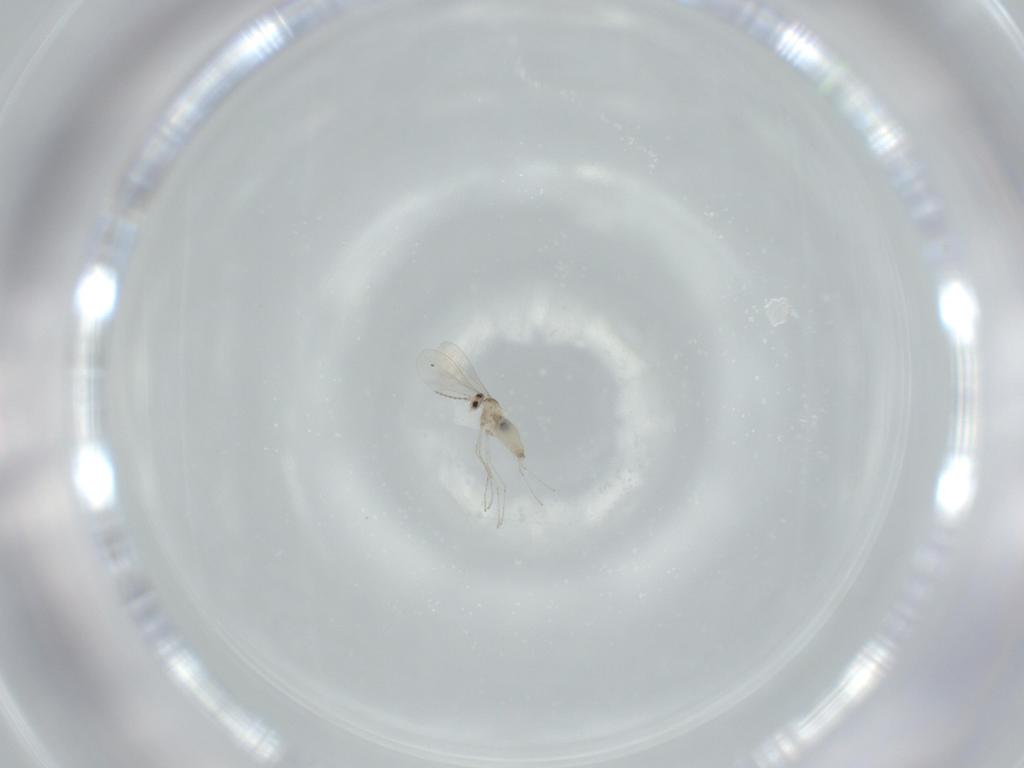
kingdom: Animalia
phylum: Arthropoda
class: Insecta
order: Diptera
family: Cecidomyiidae
